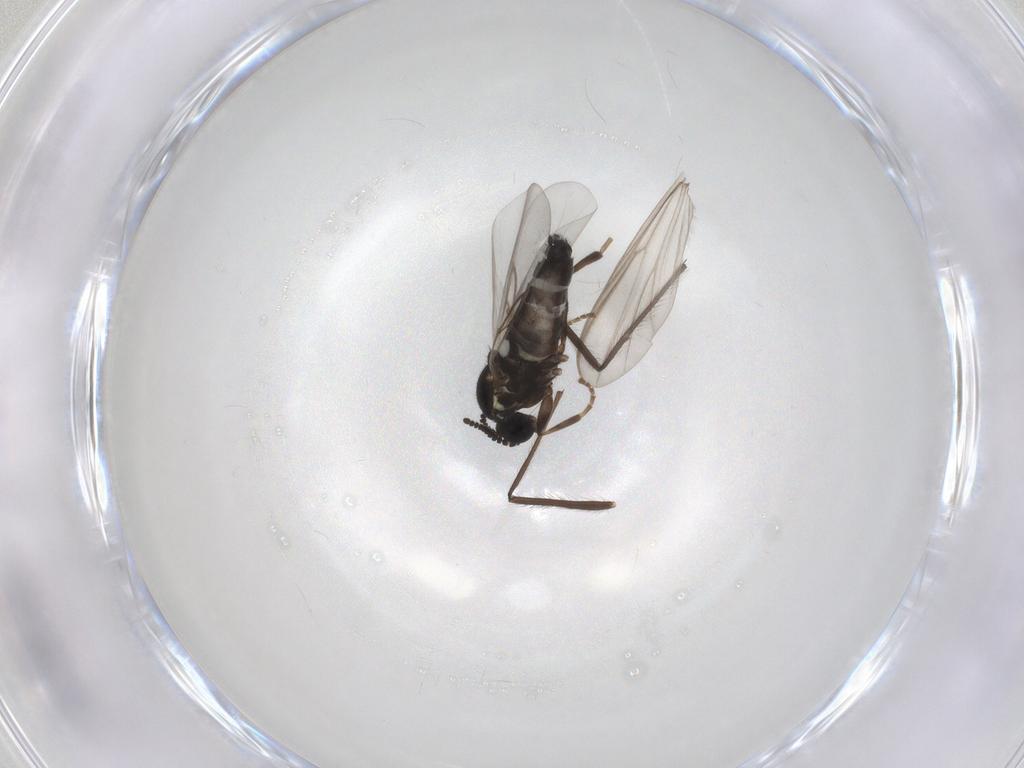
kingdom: Animalia
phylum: Arthropoda
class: Insecta
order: Diptera
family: Scatopsidae
